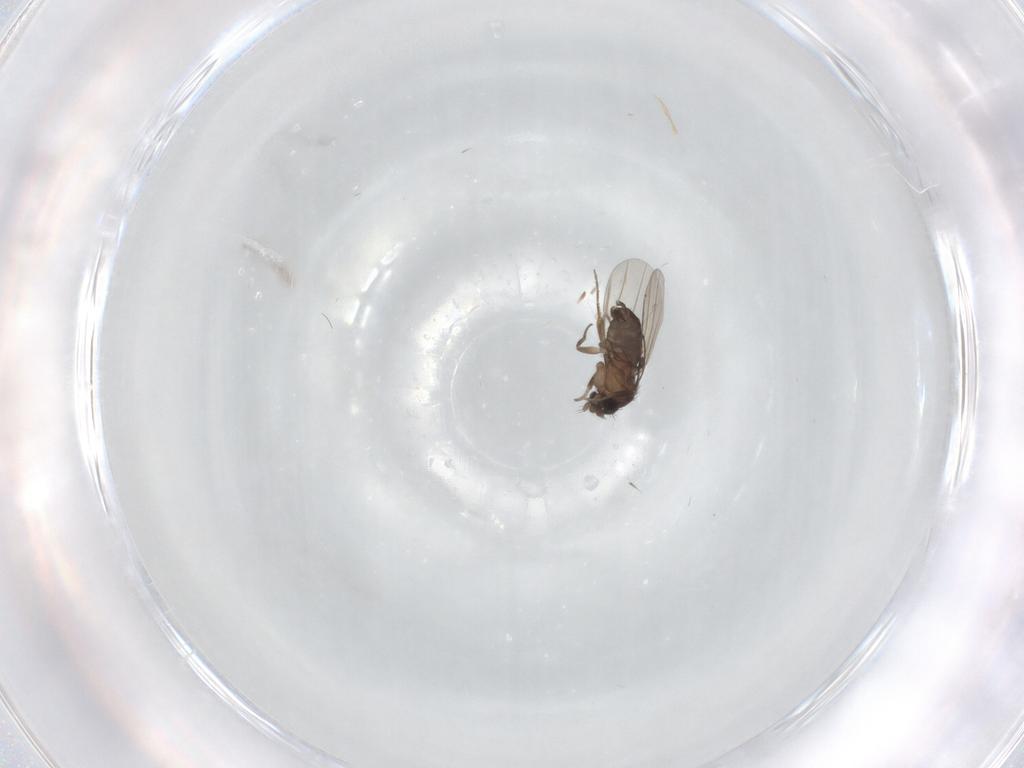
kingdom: Animalia
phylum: Arthropoda
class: Insecta
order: Diptera
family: Phoridae
